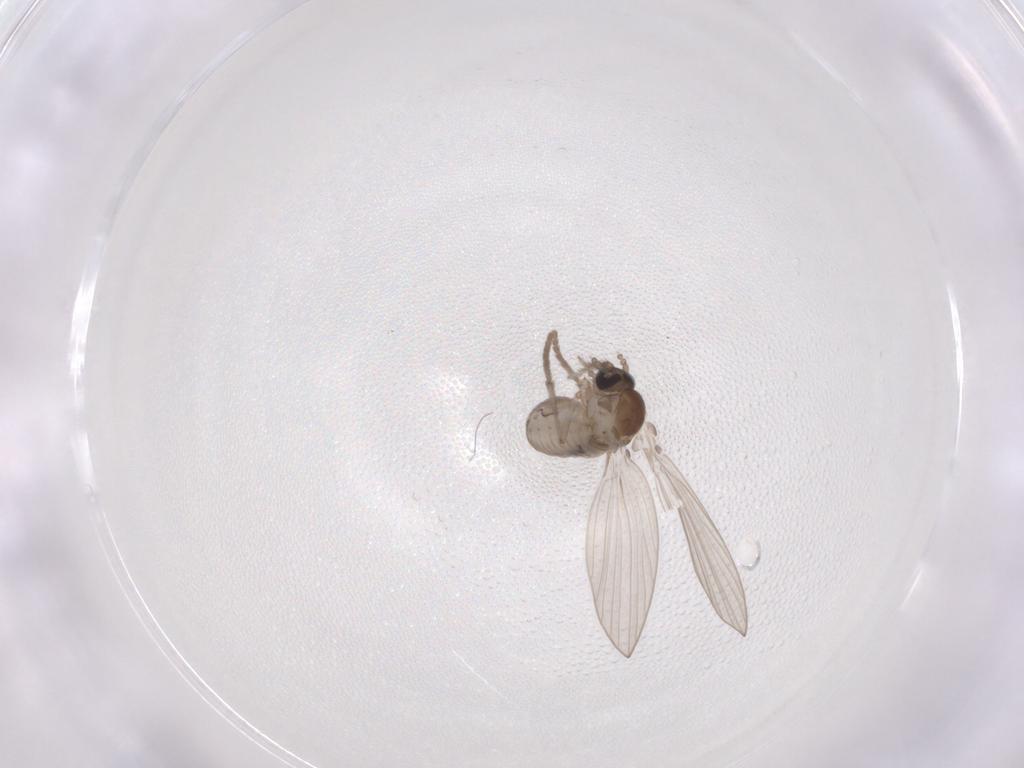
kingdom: Animalia
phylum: Arthropoda
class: Insecta
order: Diptera
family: Psychodidae
